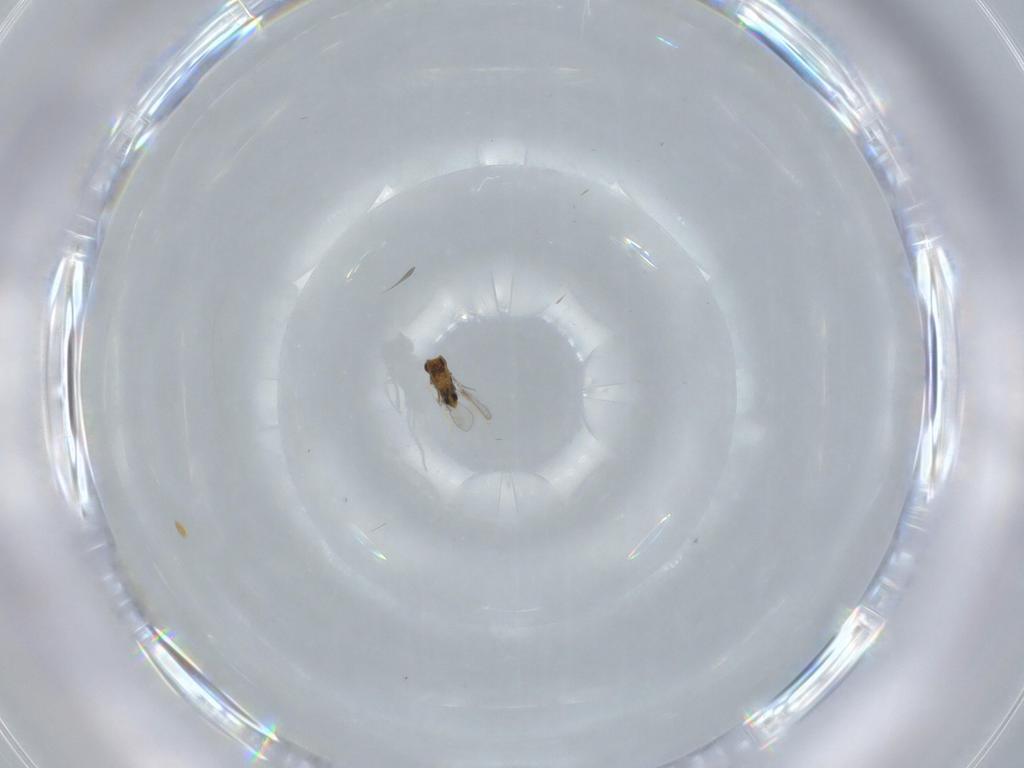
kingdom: Animalia
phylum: Arthropoda
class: Insecta
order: Hymenoptera
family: Aphelinidae
